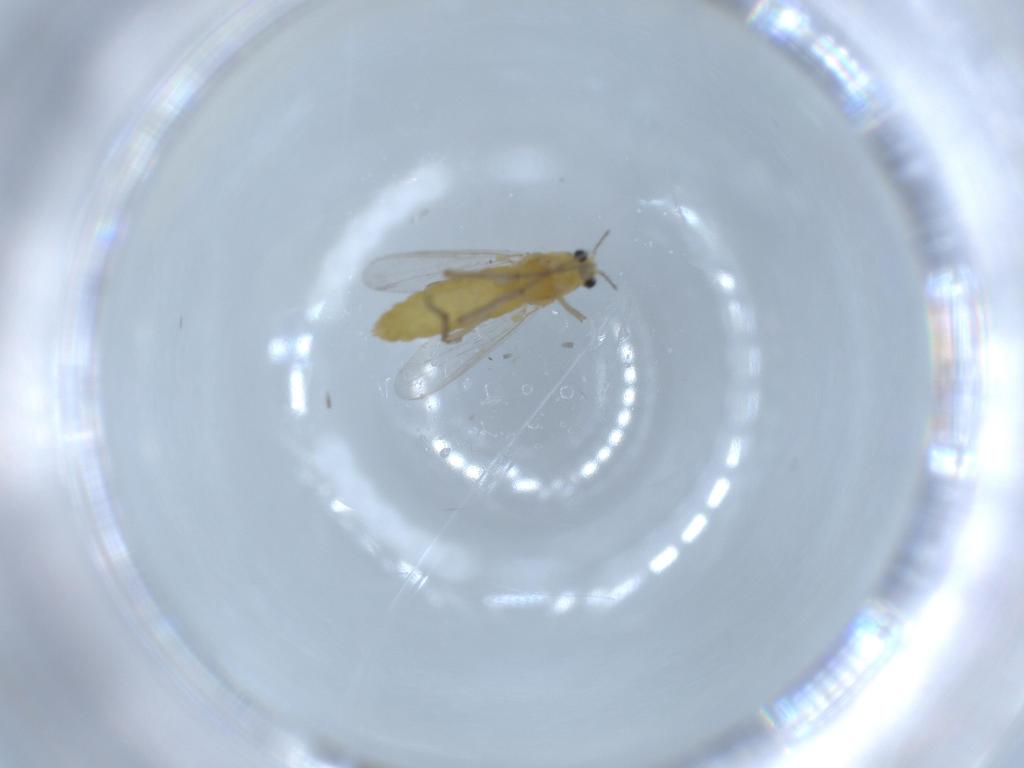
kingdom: Animalia
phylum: Arthropoda
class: Insecta
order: Diptera
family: Chironomidae
